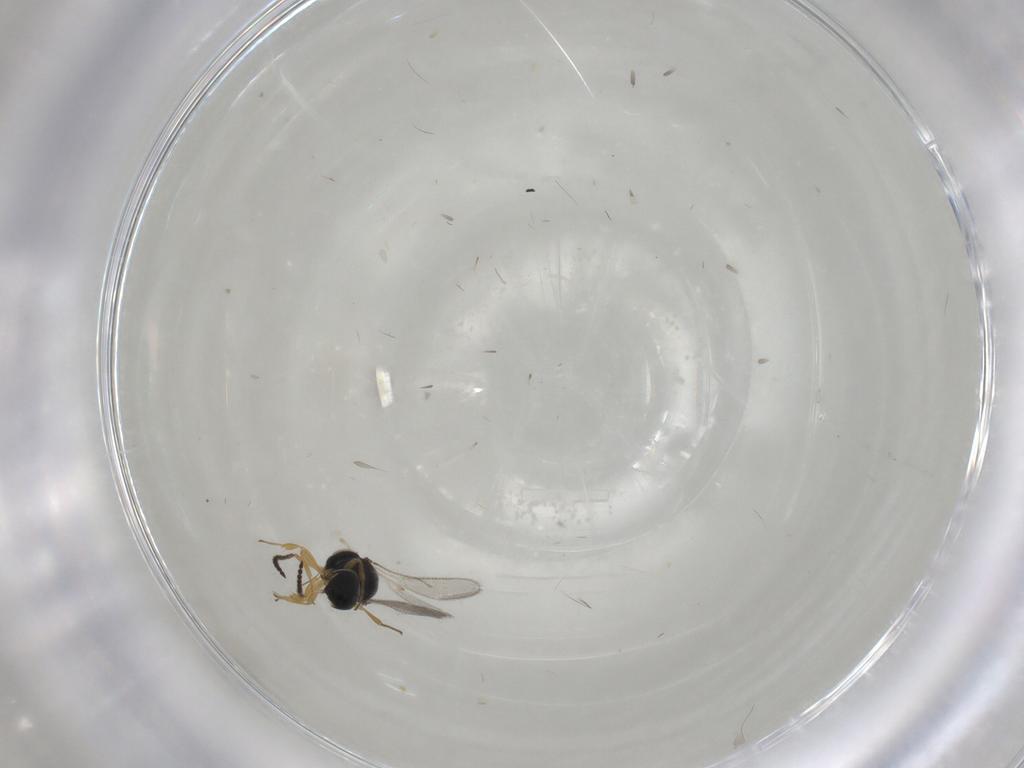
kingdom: Animalia
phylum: Arthropoda
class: Insecta
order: Hymenoptera
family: Scelionidae
